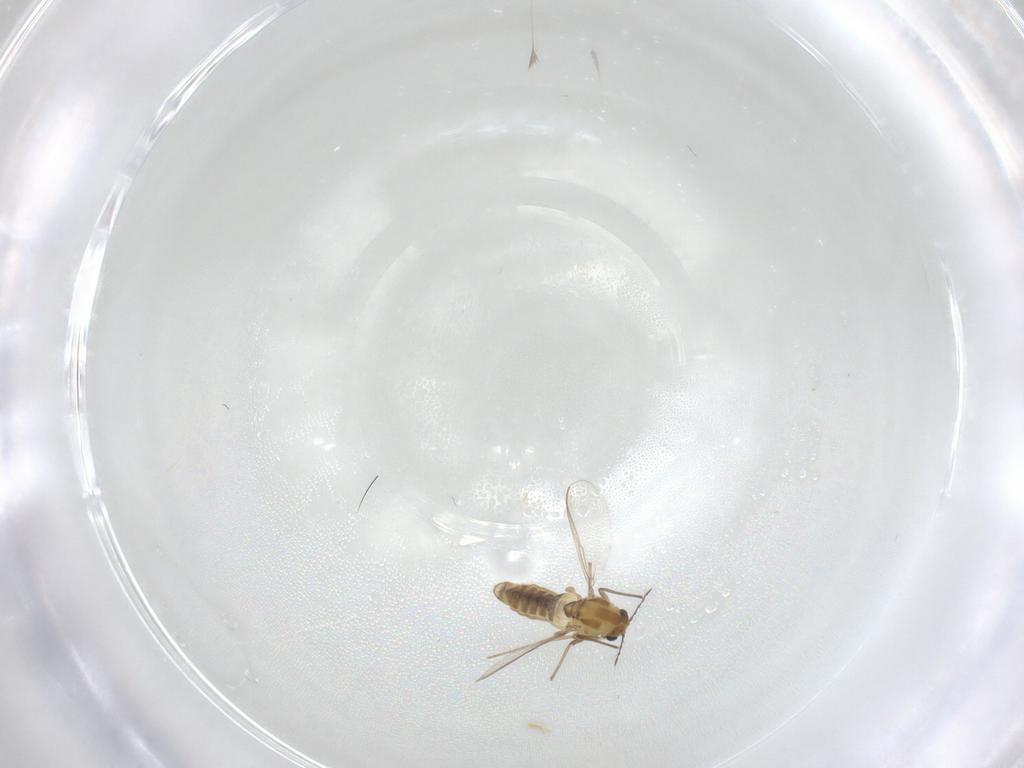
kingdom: Animalia
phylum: Arthropoda
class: Insecta
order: Diptera
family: Chironomidae
